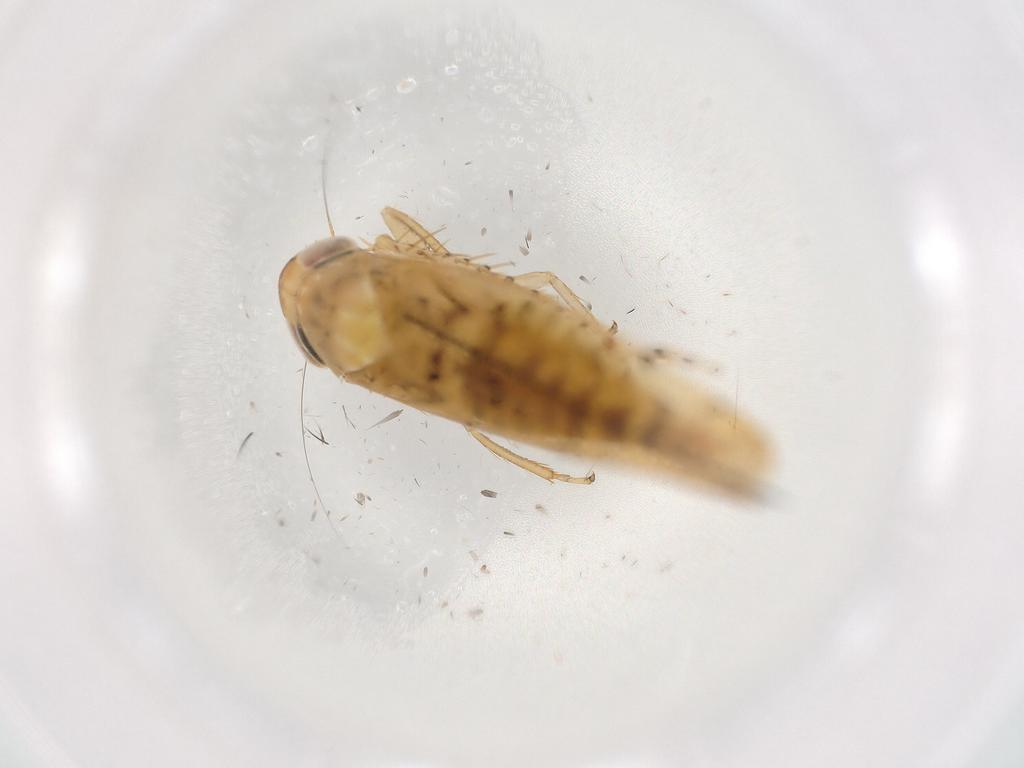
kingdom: Animalia
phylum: Arthropoda
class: Insecta
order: Hemiptera
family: Cicadellidae
